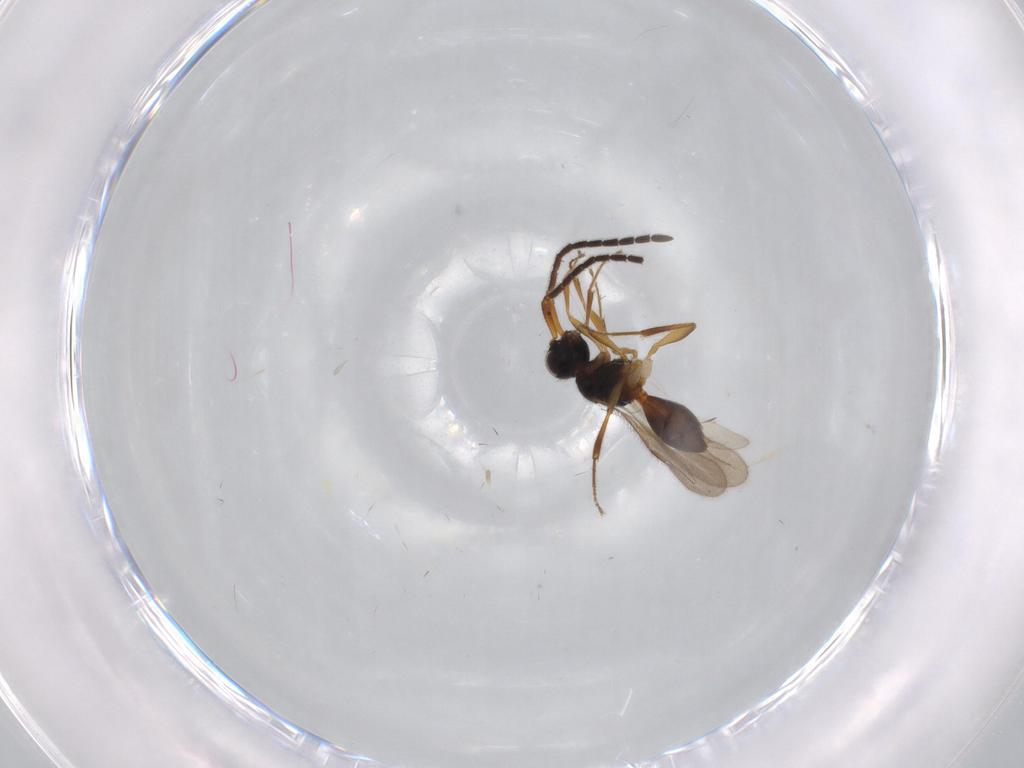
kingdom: Animalia
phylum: Arthropoda
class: Insecta
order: Hymenoptera
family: Megaspilidae
